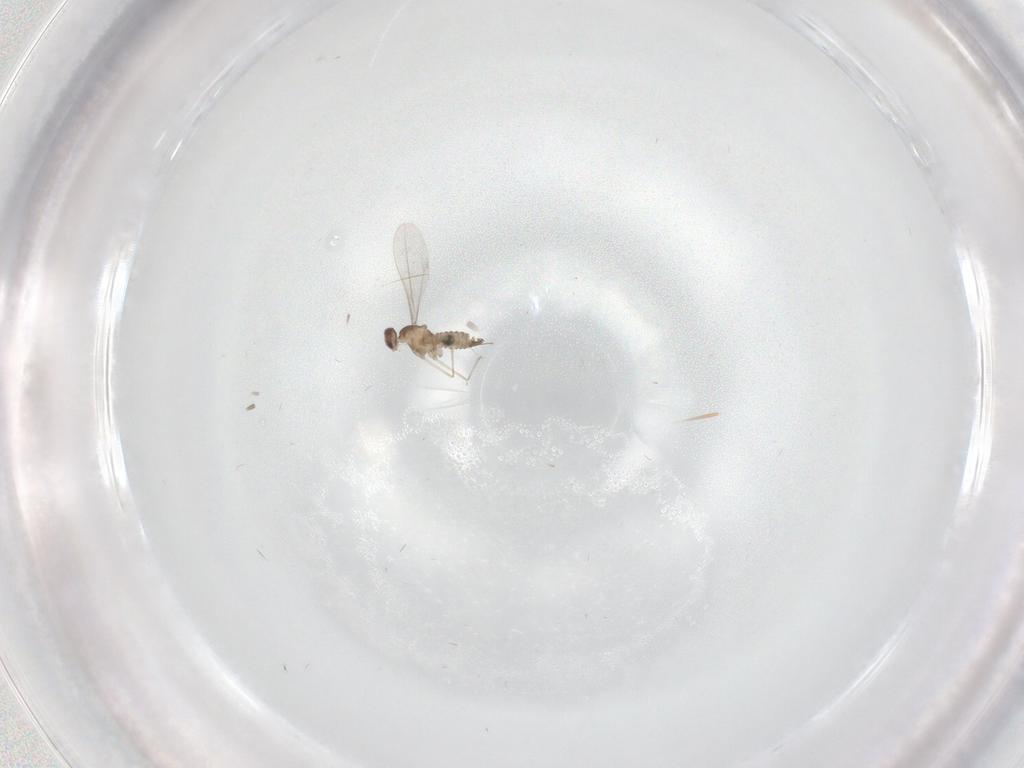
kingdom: Animalia
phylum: Arthropoda
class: Insecta
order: Diptera
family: Cecidomyiidae
